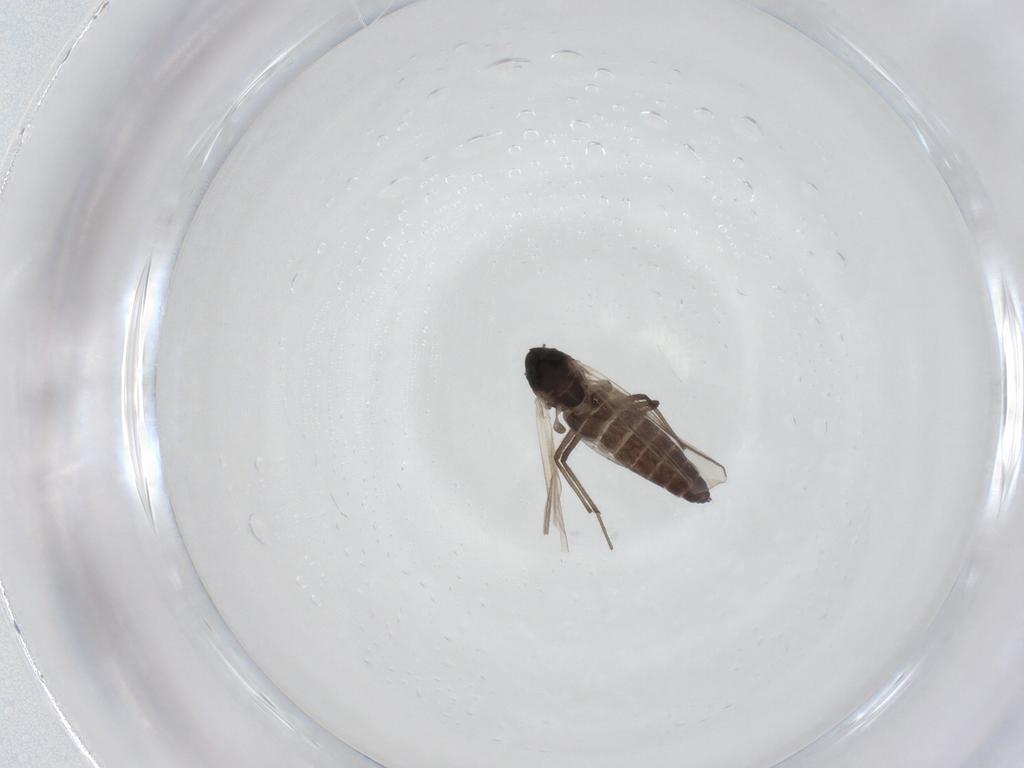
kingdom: Animalia
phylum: Arthropoda
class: Insecta
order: Diptera
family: Chironomidae
